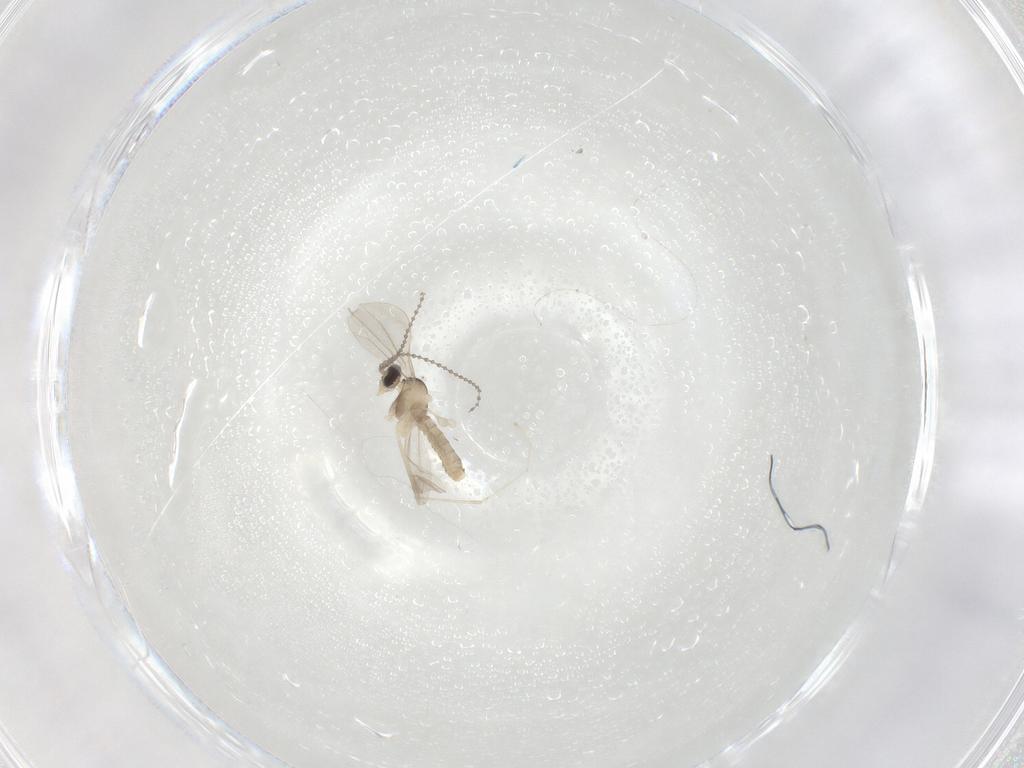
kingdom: Animalia
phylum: Arthropoda
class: Insecta
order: Diptera
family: Cecidomyiidae
